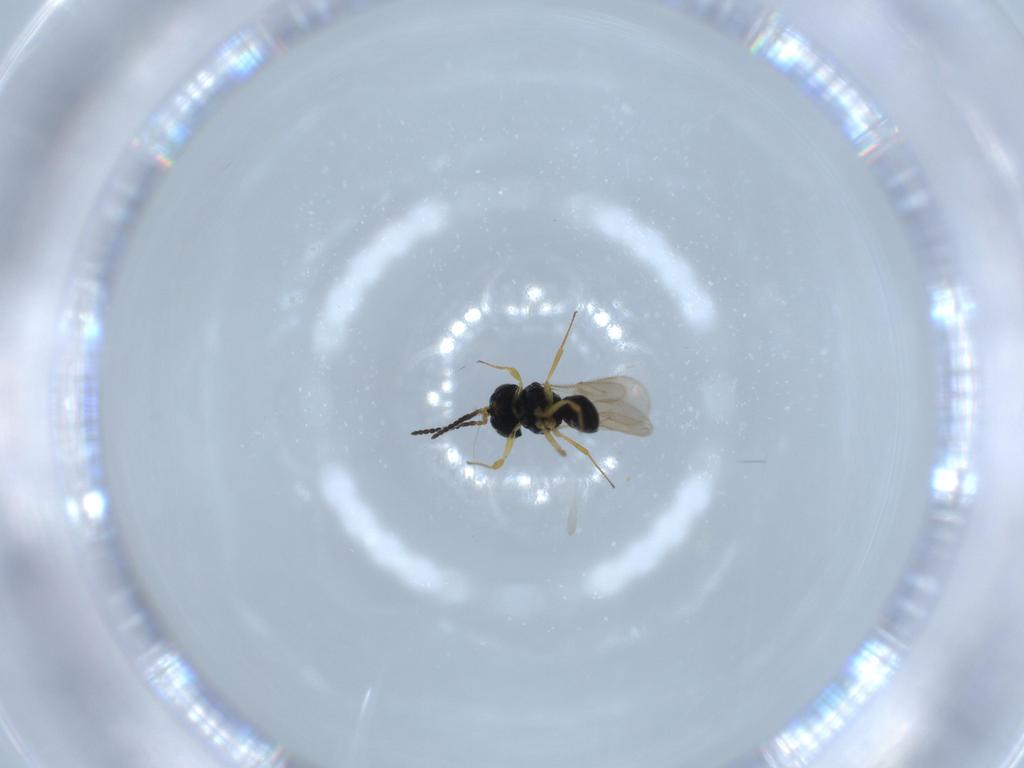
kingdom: Animalia
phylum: Arthropoda
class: Insecta
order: Hymenoptera
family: Scelionidae
